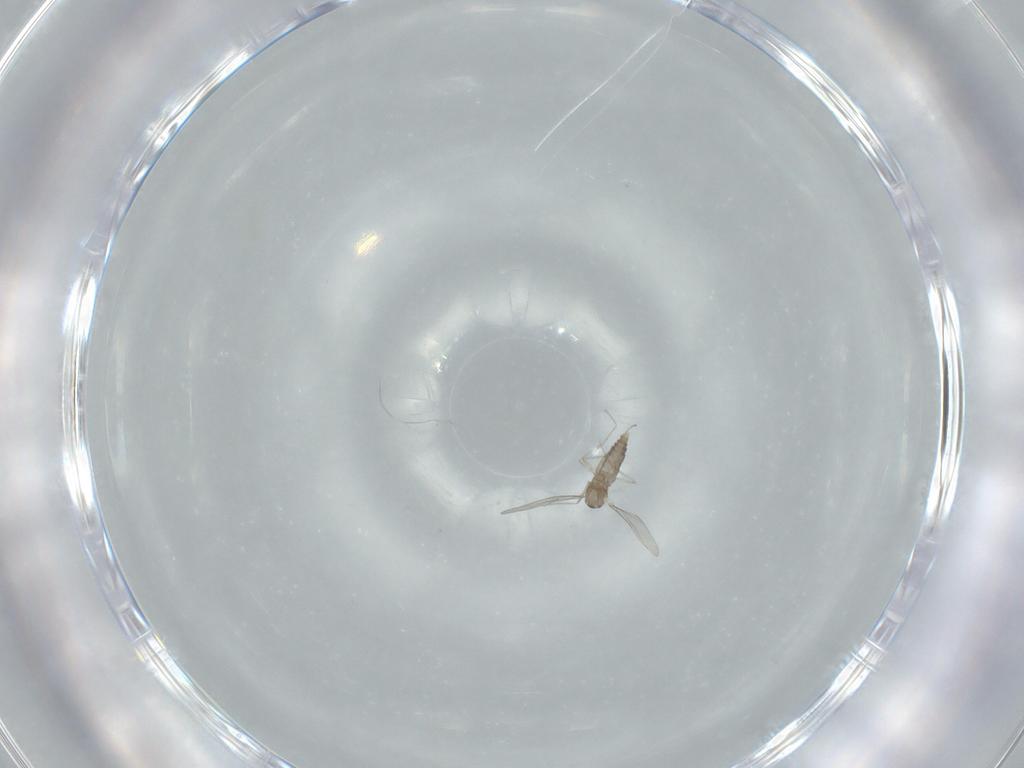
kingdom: Animalia
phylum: Arthropoda
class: Insecta
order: Diptera
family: Cecidomyiidae
